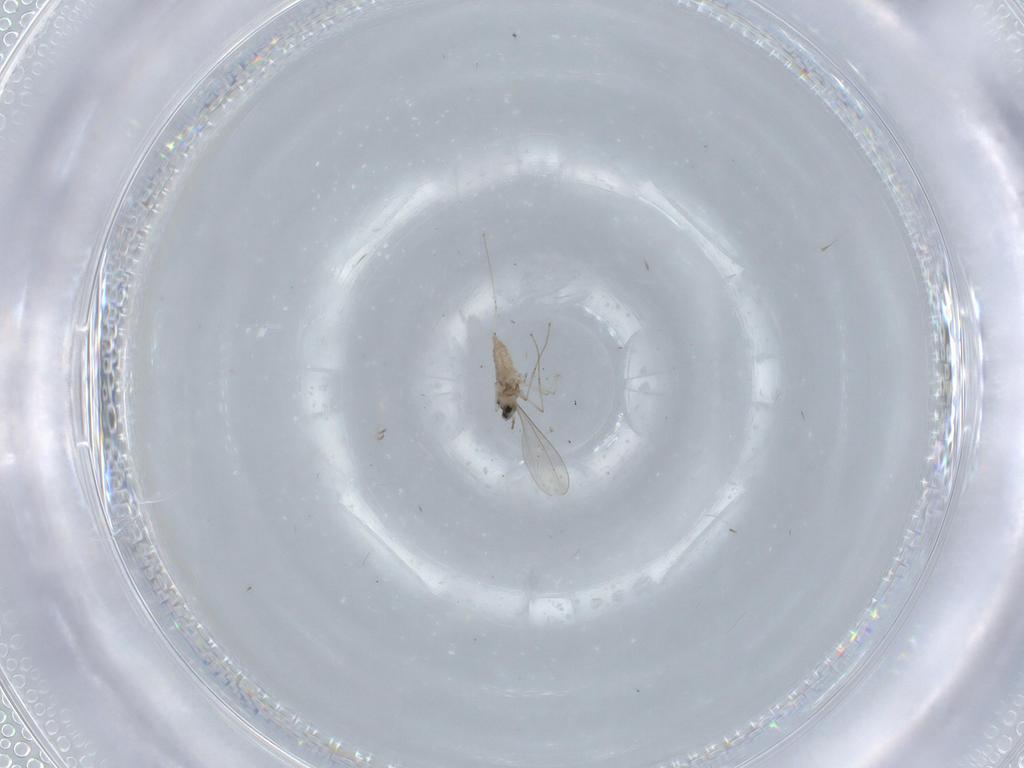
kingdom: Animalia
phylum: Arthropoda
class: Insecta
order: Diptera
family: Cecidomyiidae
